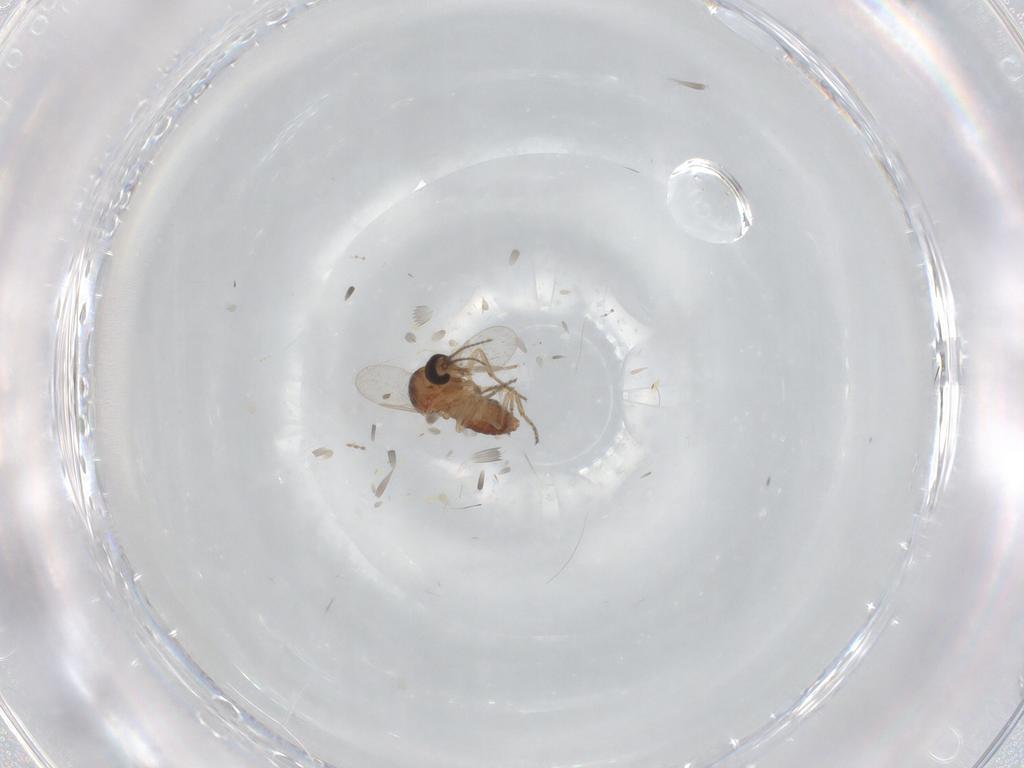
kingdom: Animalia
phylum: Arthropoda
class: Insecta
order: Diptera
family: Ceratopogonidae
